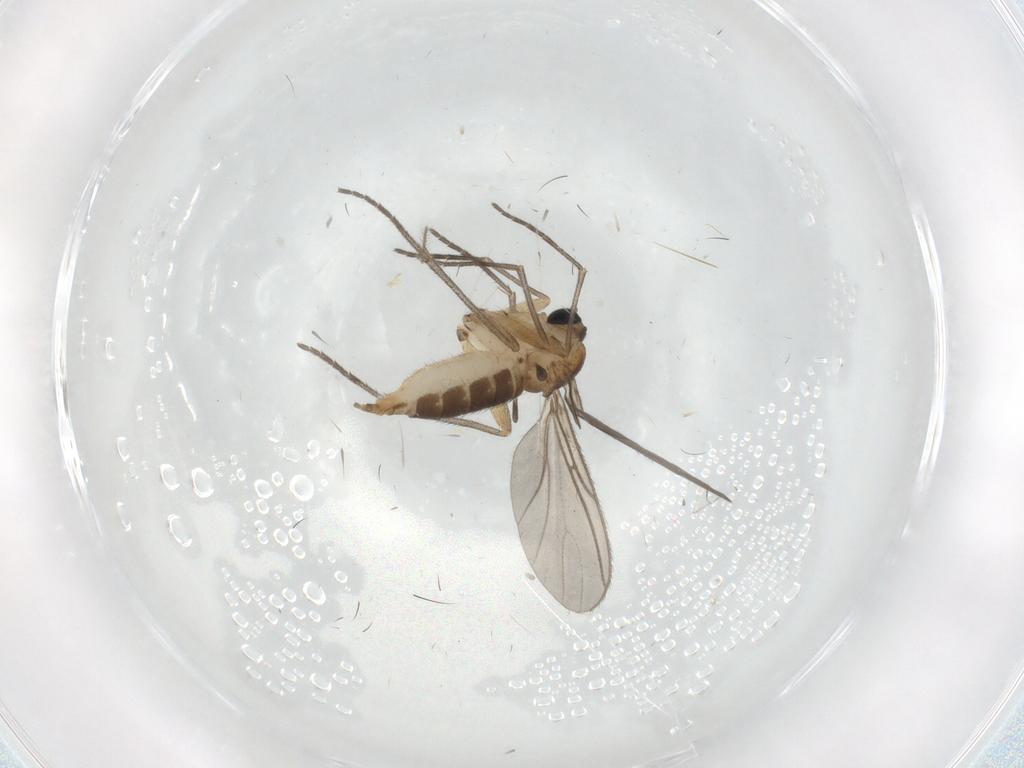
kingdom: Animalia
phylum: Arthropoda
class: Insecta
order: Diptera
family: Sciaridae
